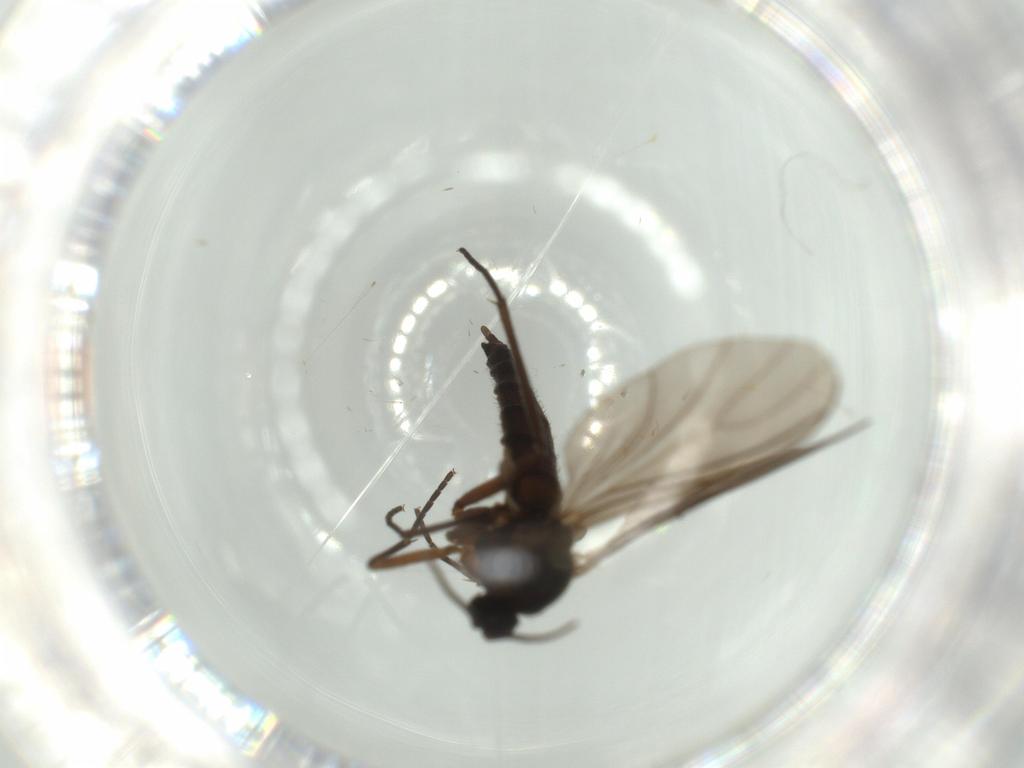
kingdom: Animalia
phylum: Arthropoda
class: Insecta
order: Diptera
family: Sciaridae
